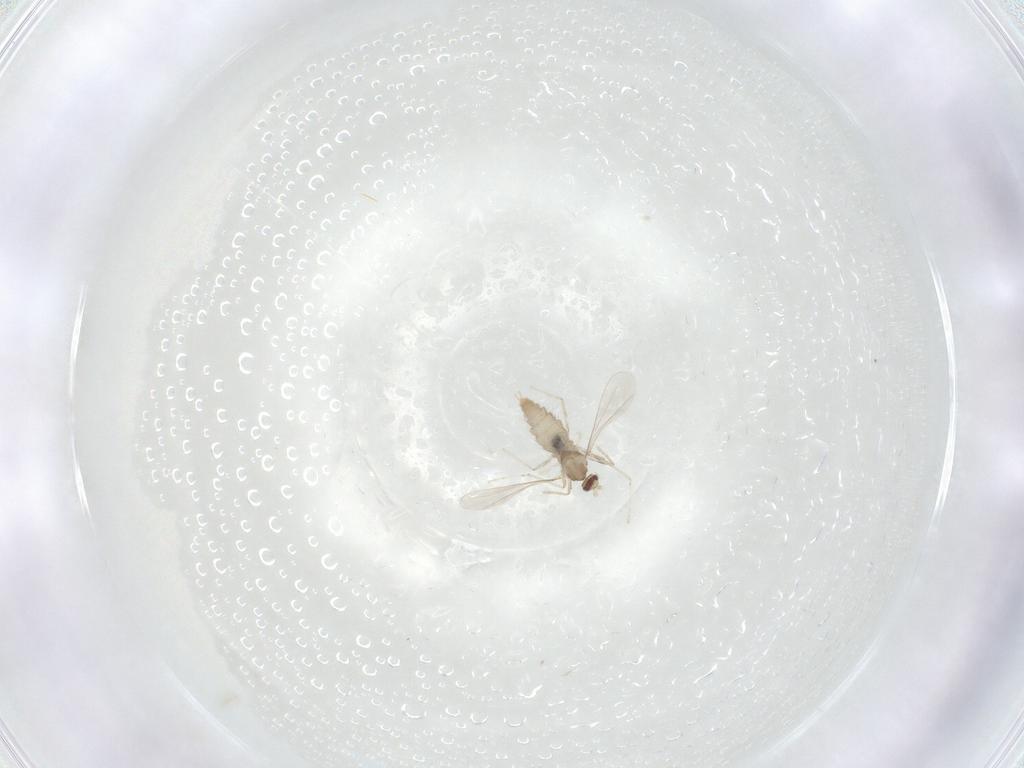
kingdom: Animalia
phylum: Arthropoda
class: Insecta
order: Diptera
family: Sciaridae
